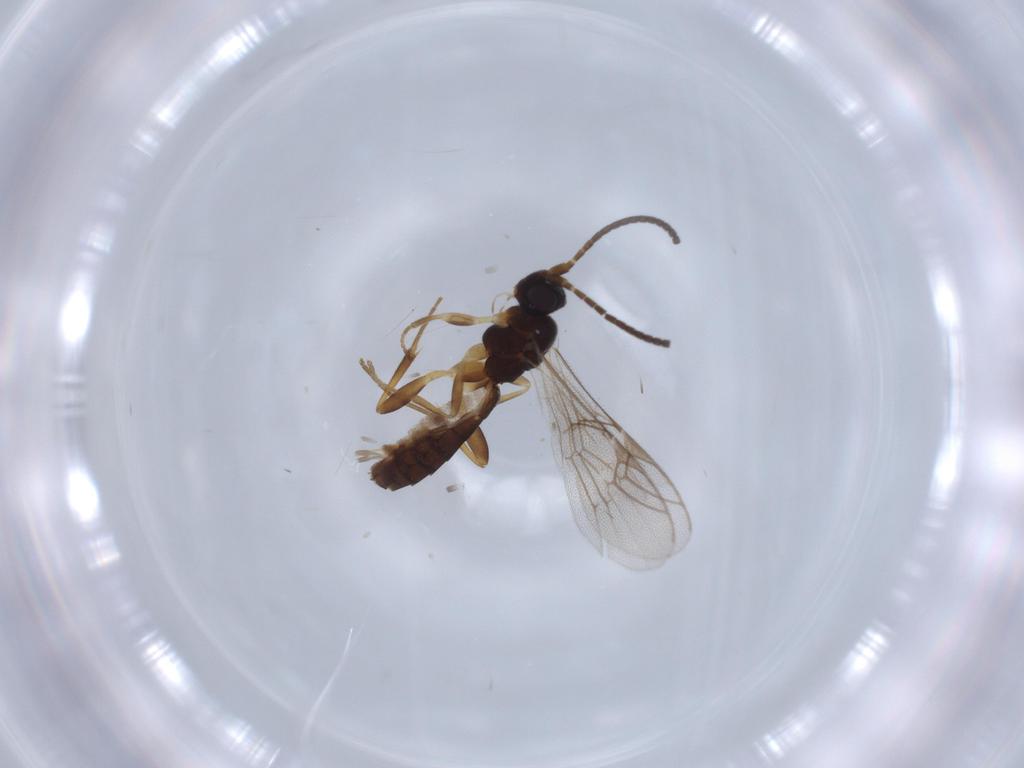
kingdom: Animalia
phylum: Arthropoda
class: Insecta
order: Hymenoptera
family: Ichneumonidae
